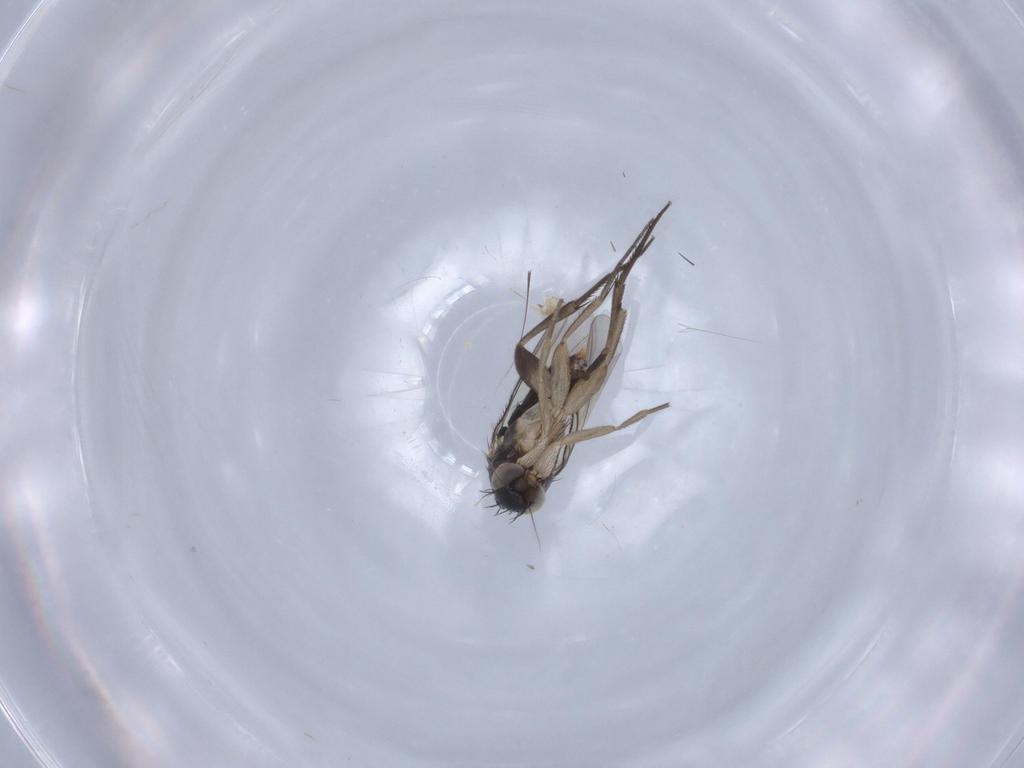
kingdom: Animalia
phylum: Arthropoda
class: Insecta
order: Diptera
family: Phoridae
